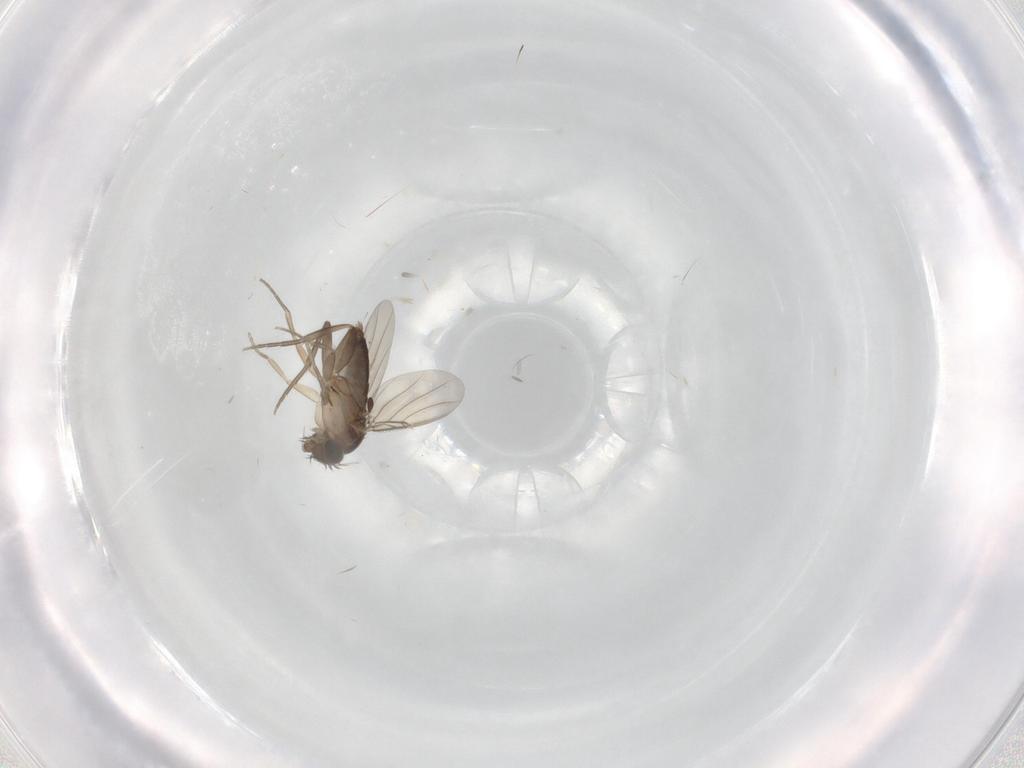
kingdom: Animalia
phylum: Arthropoda
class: Insecta
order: Diptera
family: Phoridae
